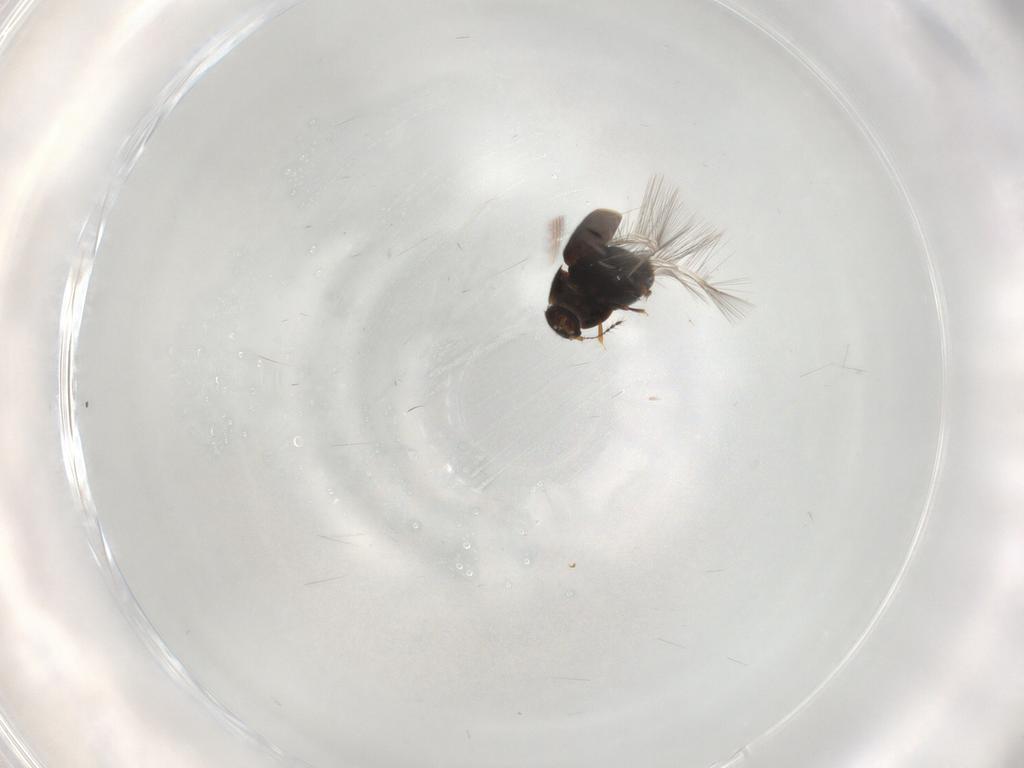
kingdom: Animalia
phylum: Arthropoda
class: Insecta
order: Coleoptera
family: Ptiliidae
